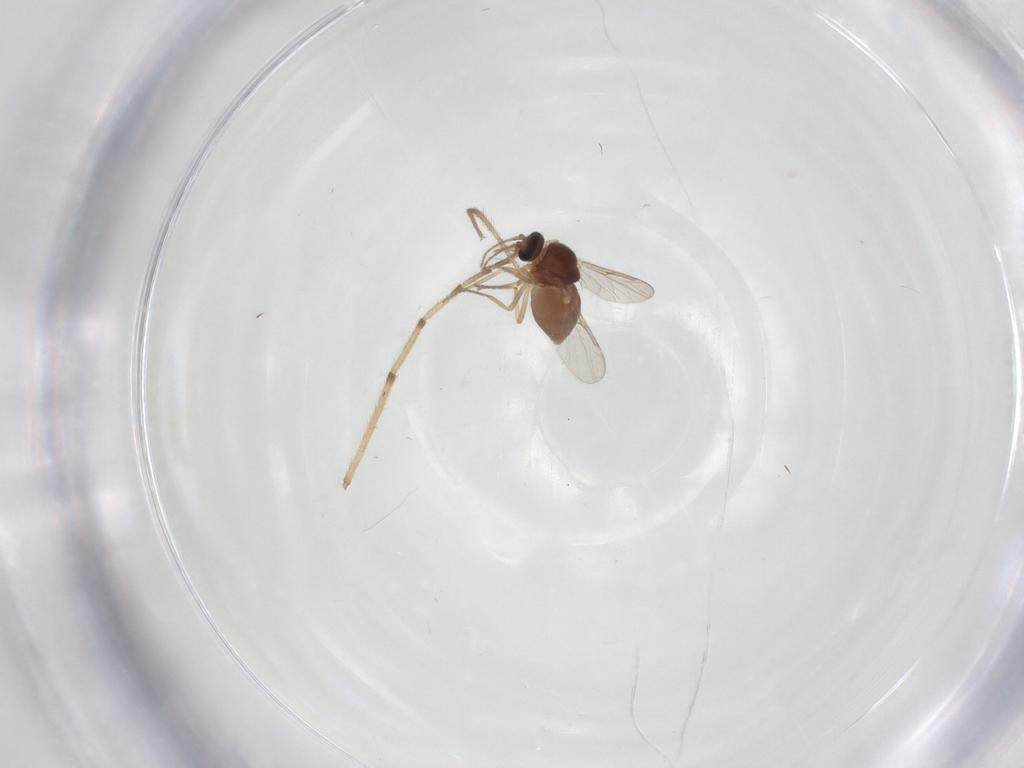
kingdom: Animalia
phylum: Arthropoda
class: Insecta
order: Diptera
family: Ceratopogonidae
